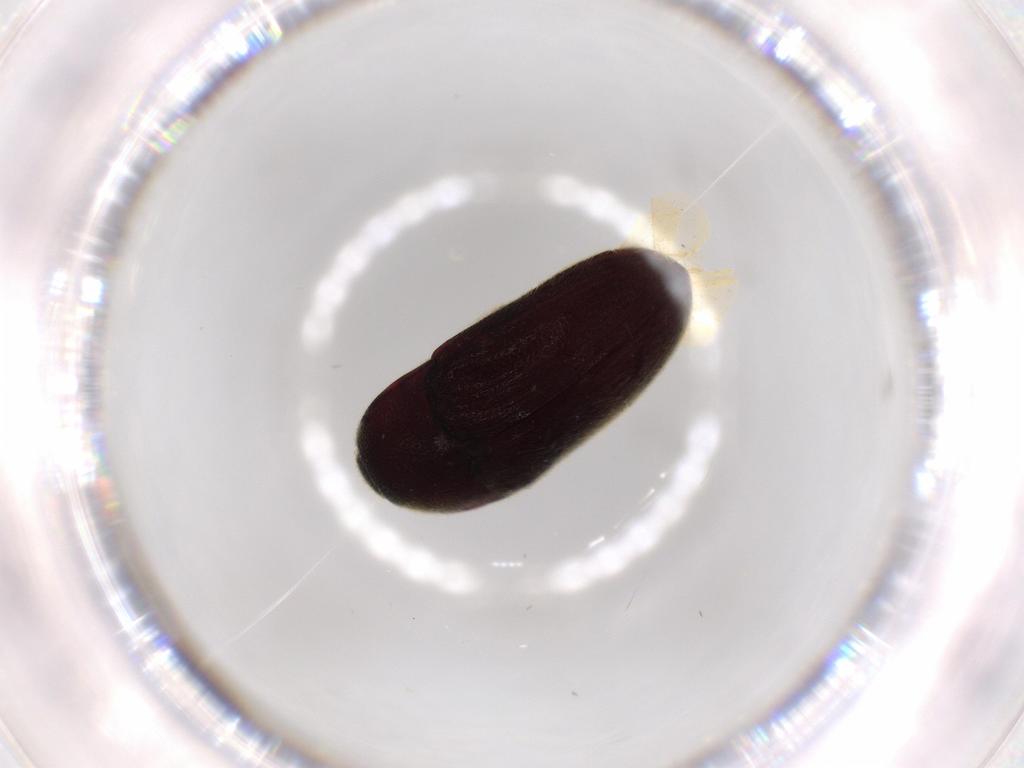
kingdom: Animalia
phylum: Arthropoda
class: Insecta
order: Coleoptera
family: Throscidae
